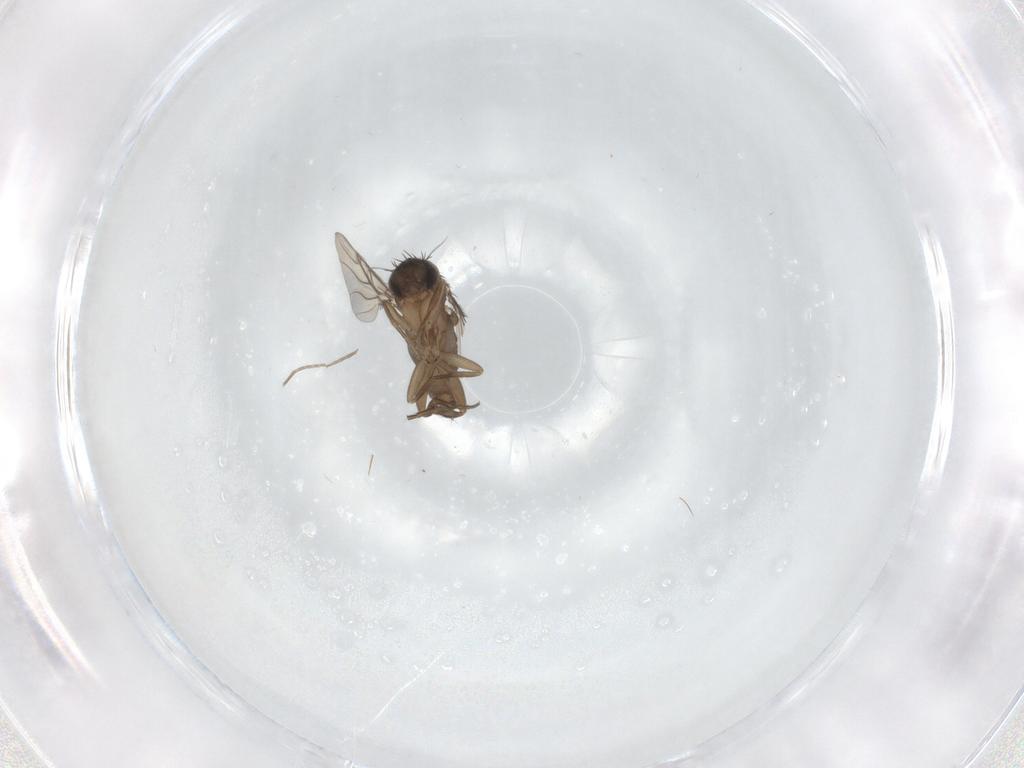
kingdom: Animalia
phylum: Arthropoda
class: Insecta
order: Diptera
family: Phoridae
